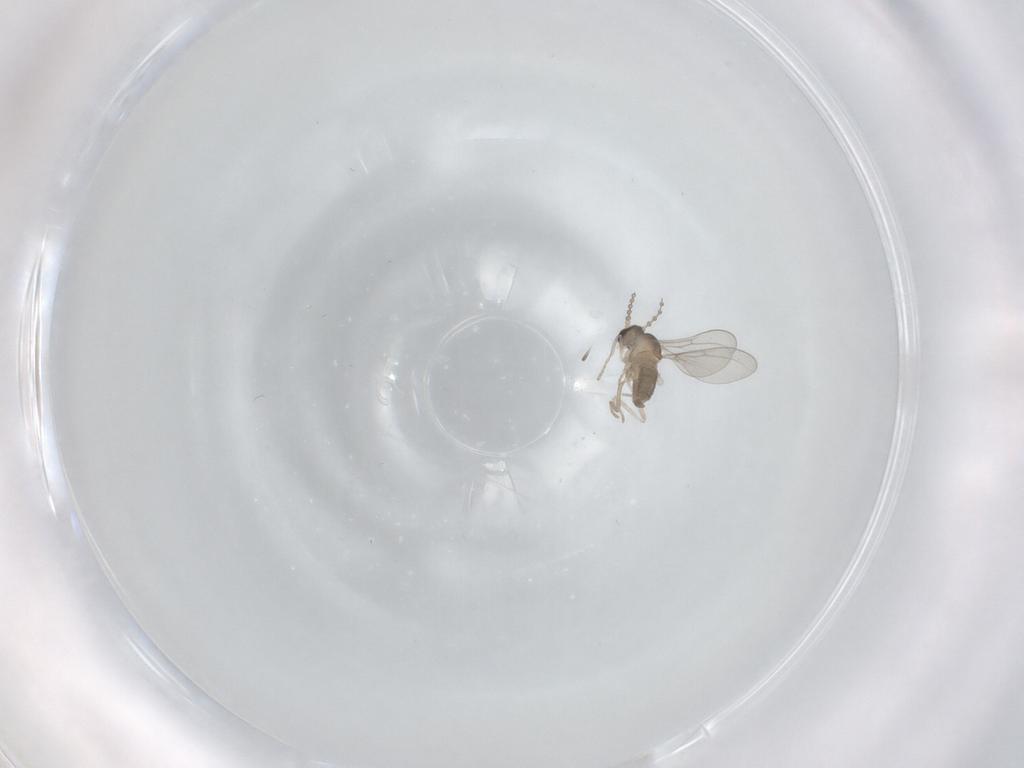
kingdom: Animalia
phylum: Arthropoda
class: Insecta
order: Diptera
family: Cecidomyiidae
